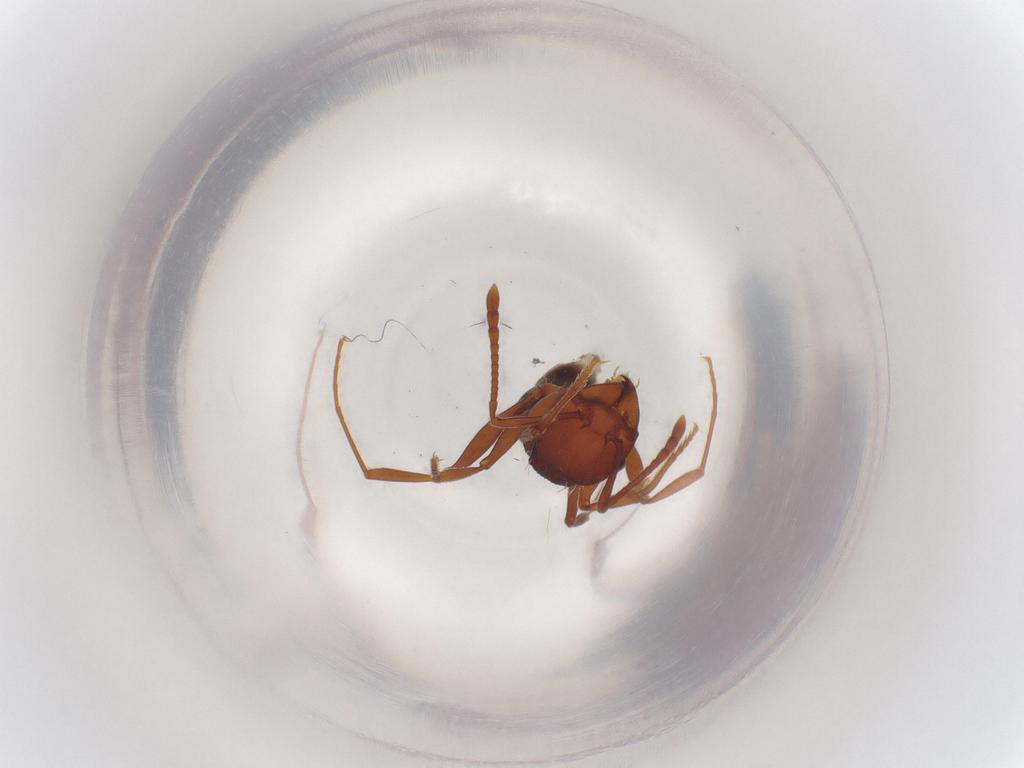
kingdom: Animalia
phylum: Arthropoda
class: Insecta
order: Hymenoptera
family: Formicidae
